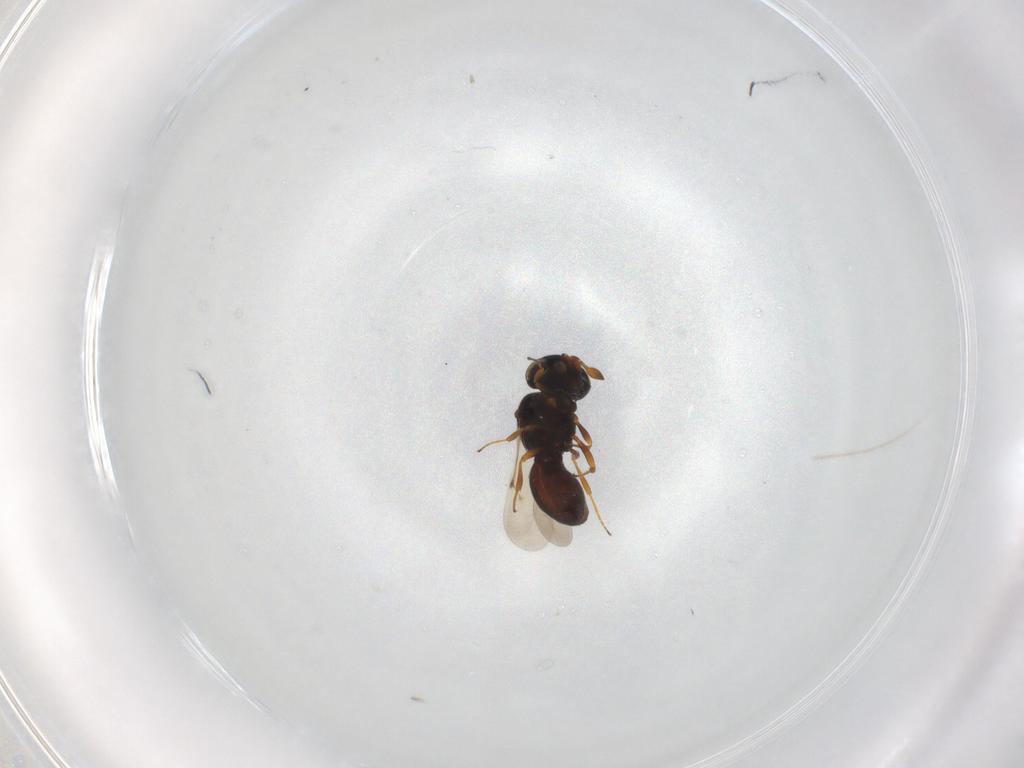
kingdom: Animalia
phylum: Arthropoda
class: Insecta
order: Hymenoptera
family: Scelionidae
